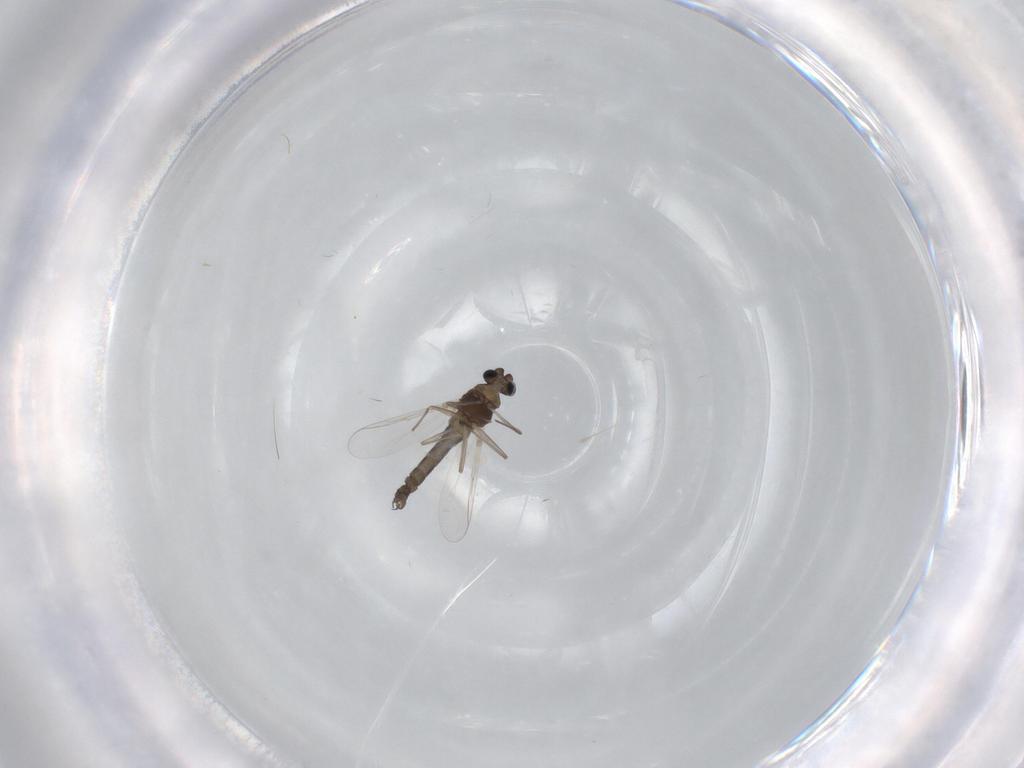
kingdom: Animalia
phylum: Arthropoda
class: Insecta
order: Diptera
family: Chironomidae
